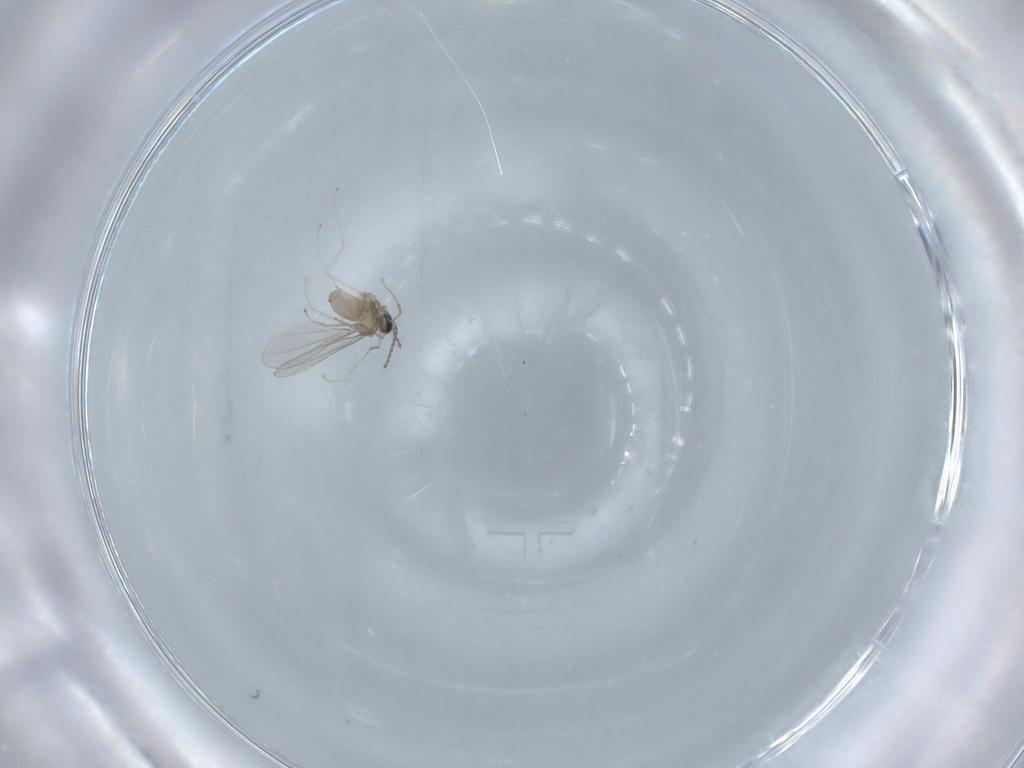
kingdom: Animalia
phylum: Arthropoda
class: Insecta
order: Diptera
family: Cecidomyiidae
